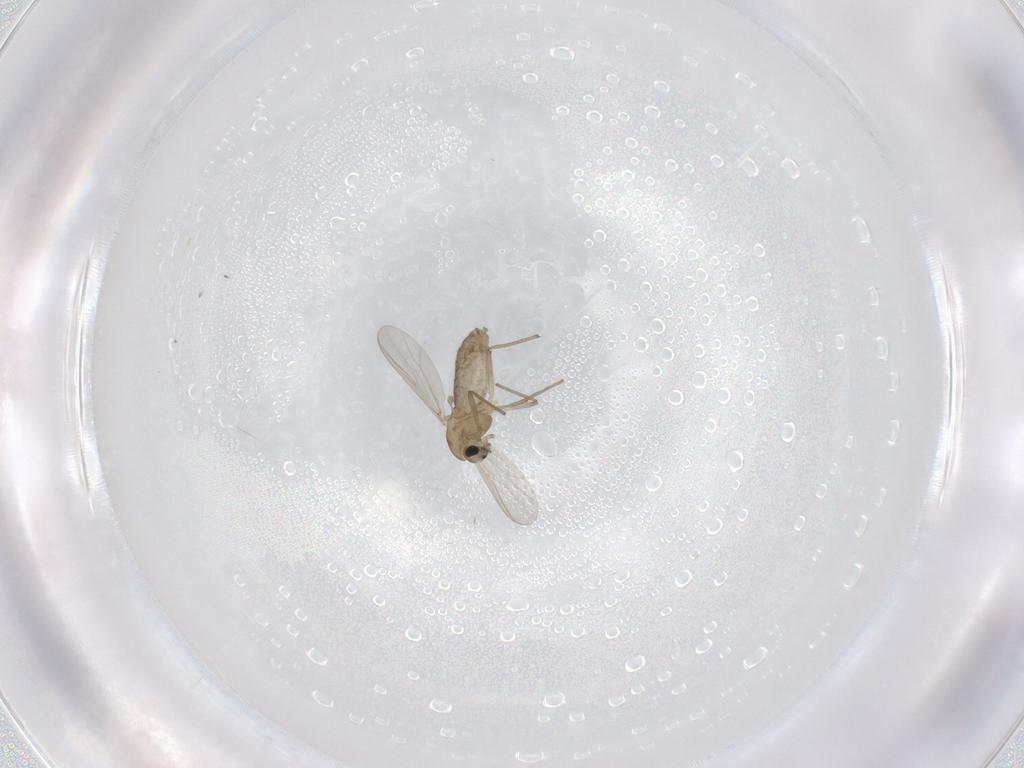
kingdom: Animalia
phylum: Arthropoda
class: Insecta
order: Diptera
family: Chironomidae
